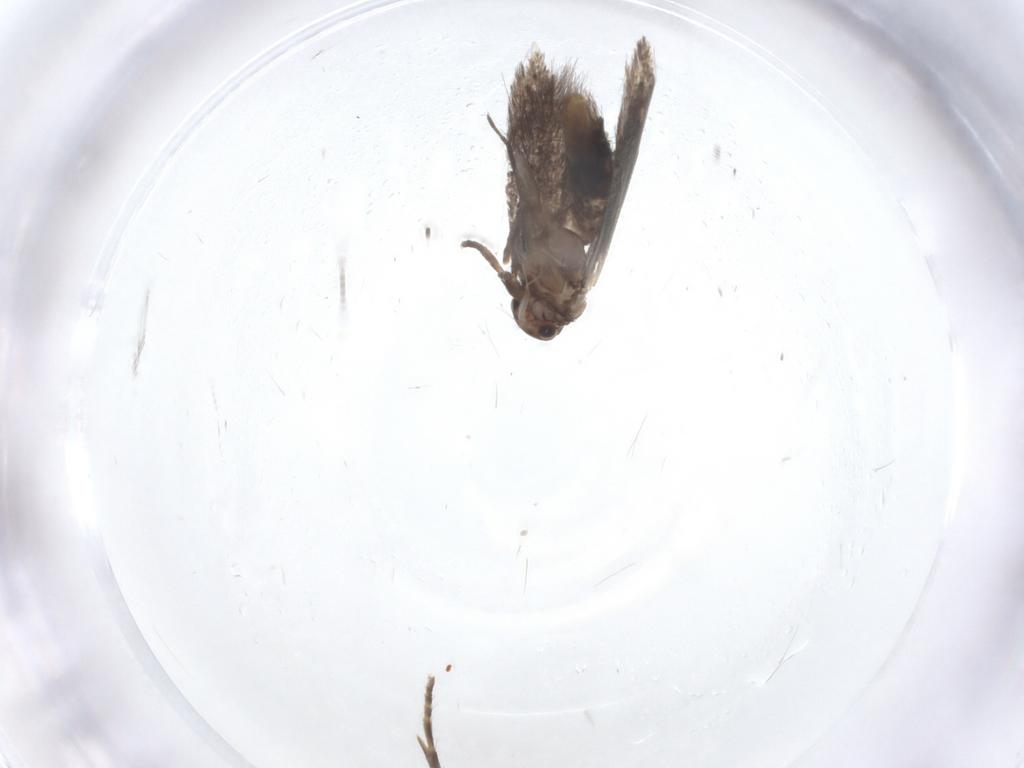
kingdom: Animalia
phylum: Arthropoda
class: Insecta
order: Lepidoptera
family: Elachistidae
